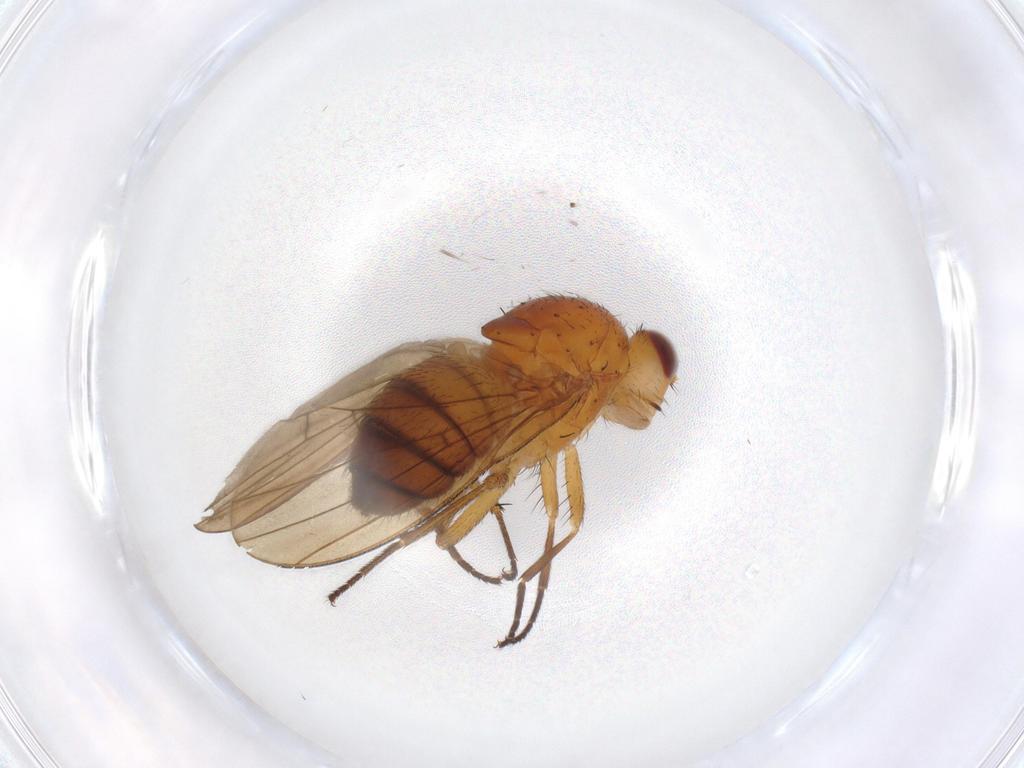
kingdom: Animalia
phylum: Arthropoda
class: Insecta
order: Diptera
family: Lauxaniidae
